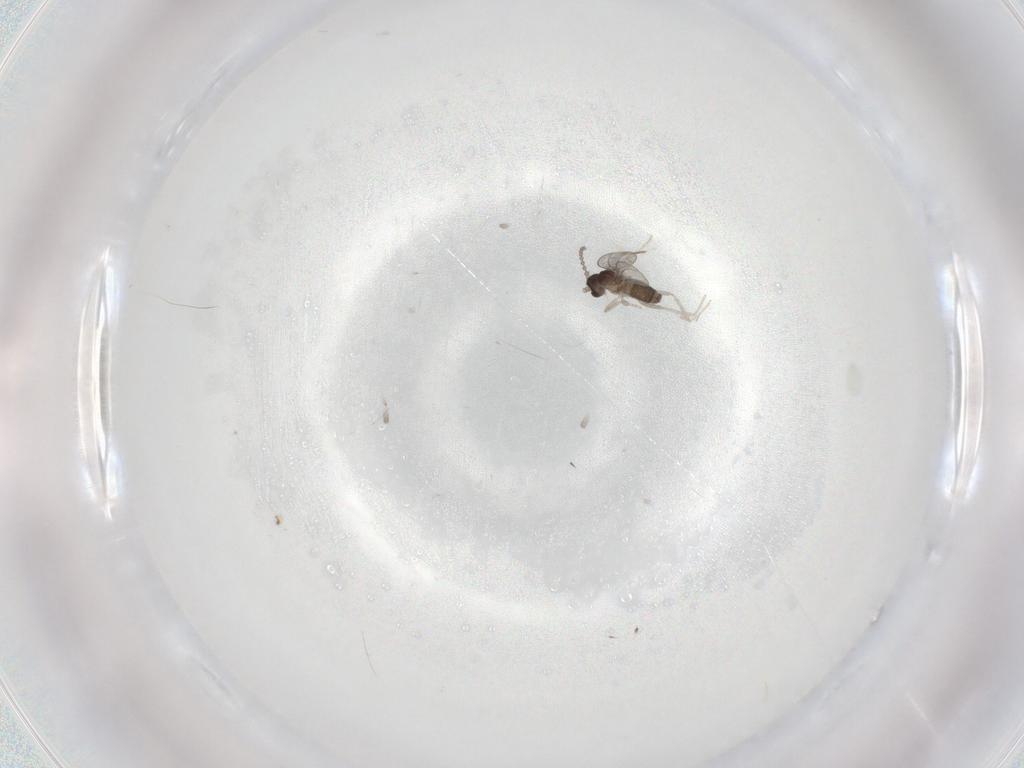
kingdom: Animalia
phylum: Arthropoda
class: Insecta
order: Diptera
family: Cecidomyiidae
